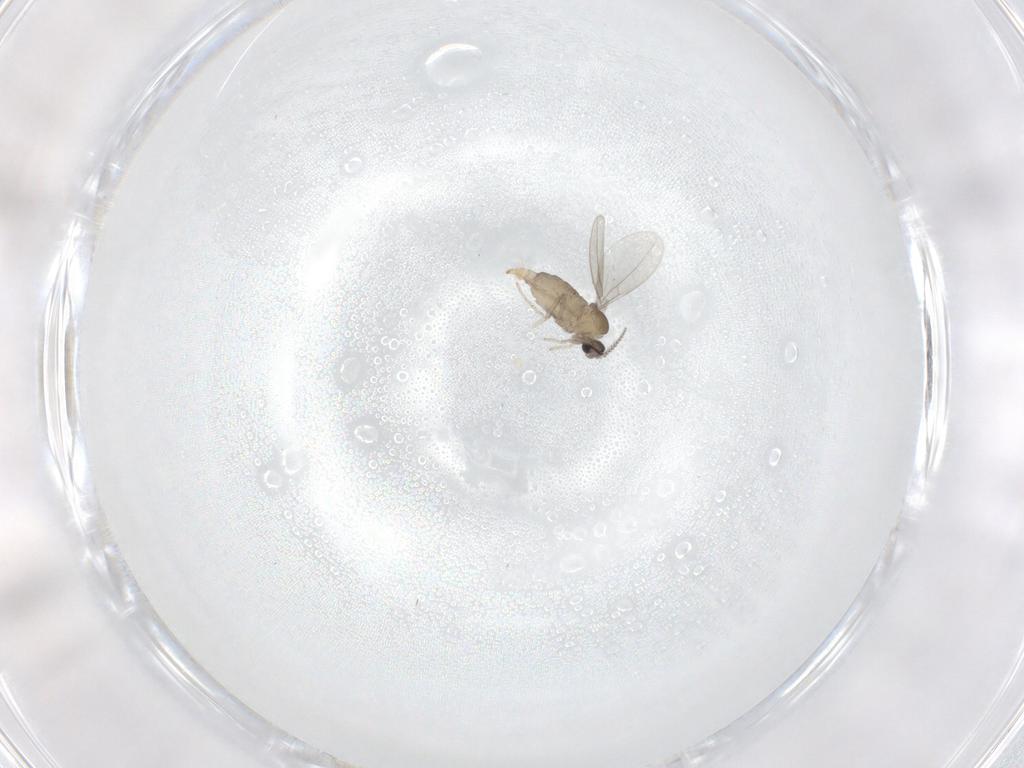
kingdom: Animalia
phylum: Arthropoda
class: Insecta
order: Diptera
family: Cecidomyiidae
